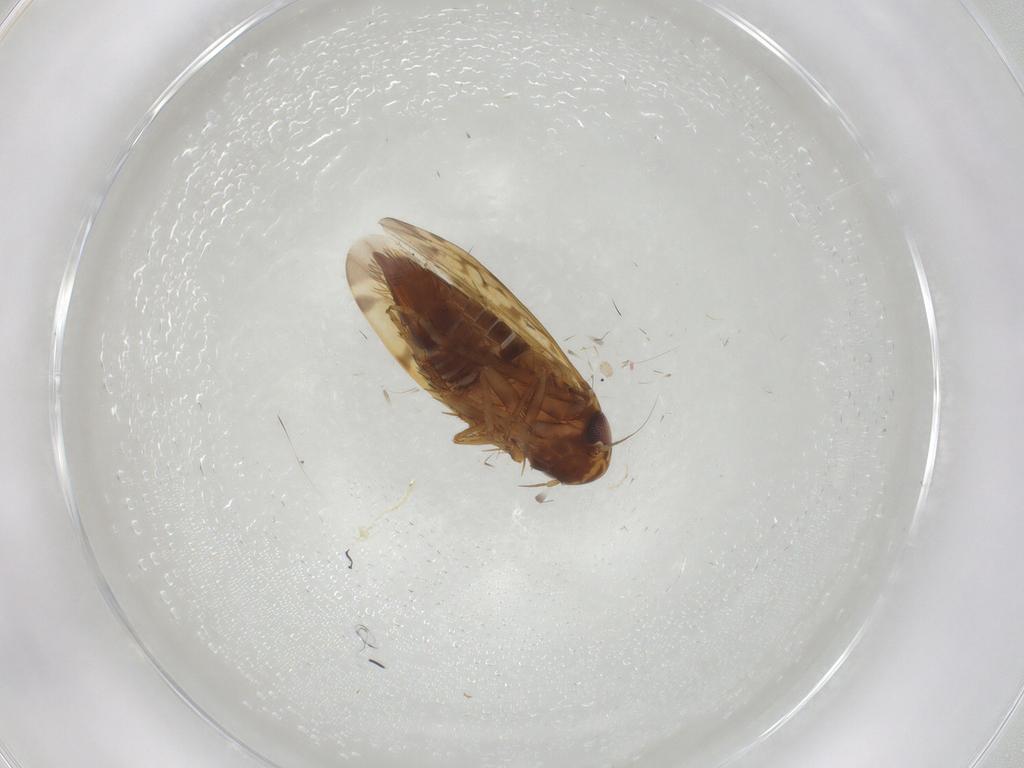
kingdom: Animalia
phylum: Arthropoda
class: Insecta
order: Hemiptera
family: Cicadellidae
